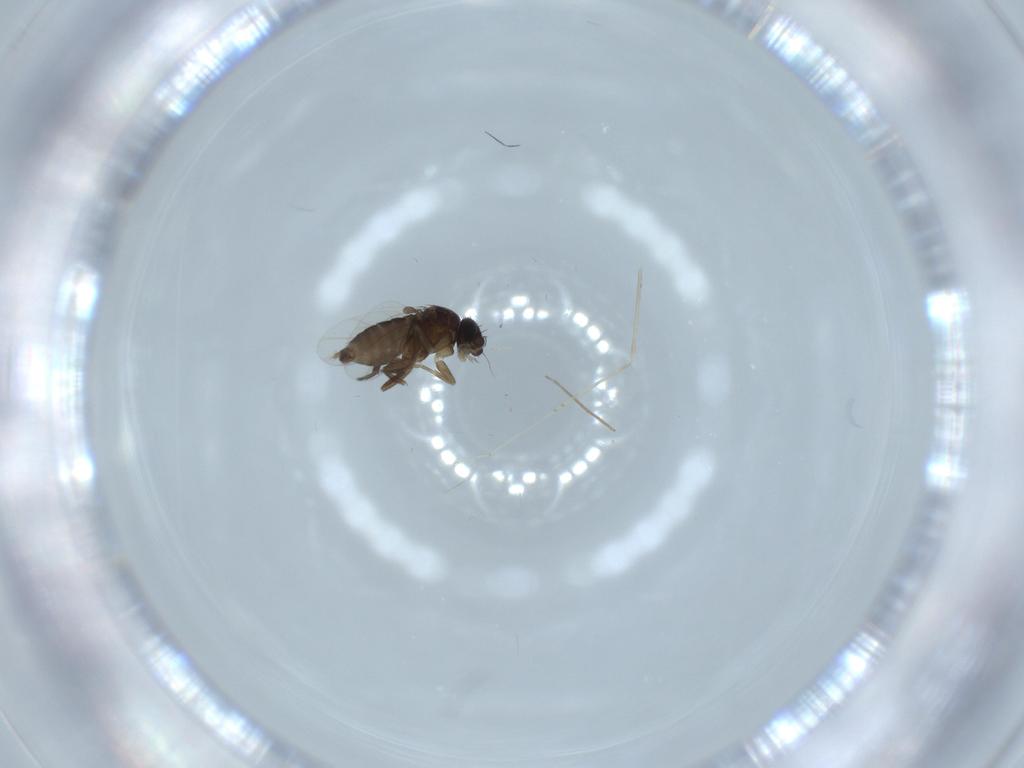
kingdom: Animalia
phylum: Arthropoda
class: Insecta
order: Diptera
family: Phoridae
